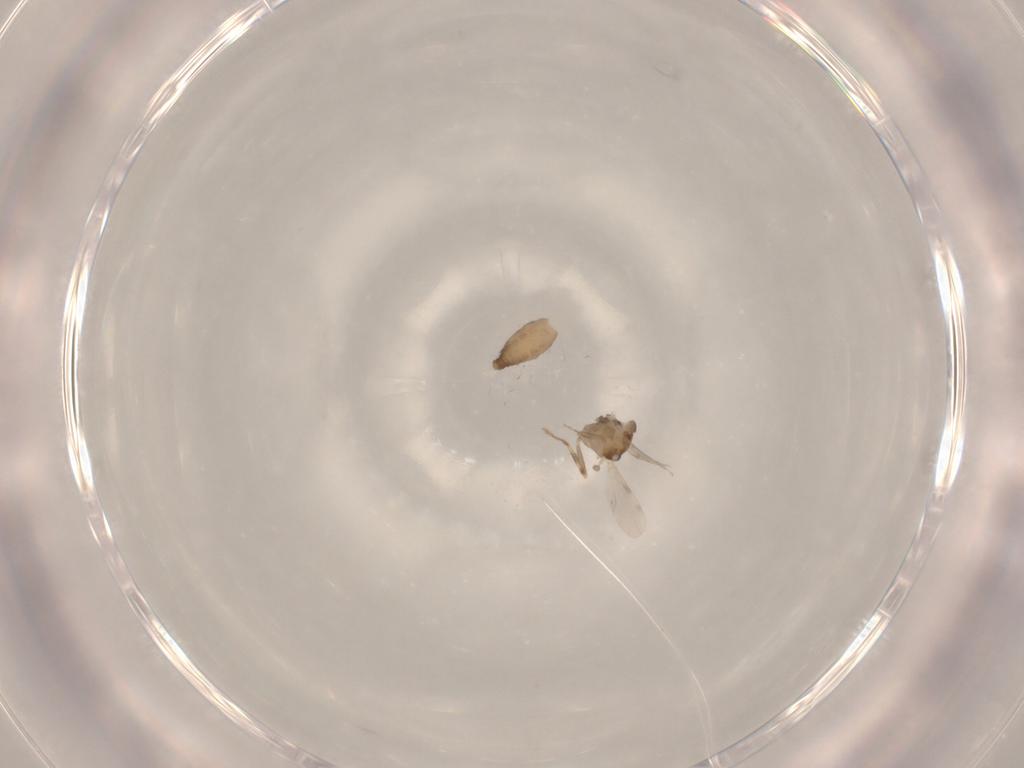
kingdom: Animalia
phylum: Arthropoda
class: Insecta
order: Diptera
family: Ceratopogonidae
